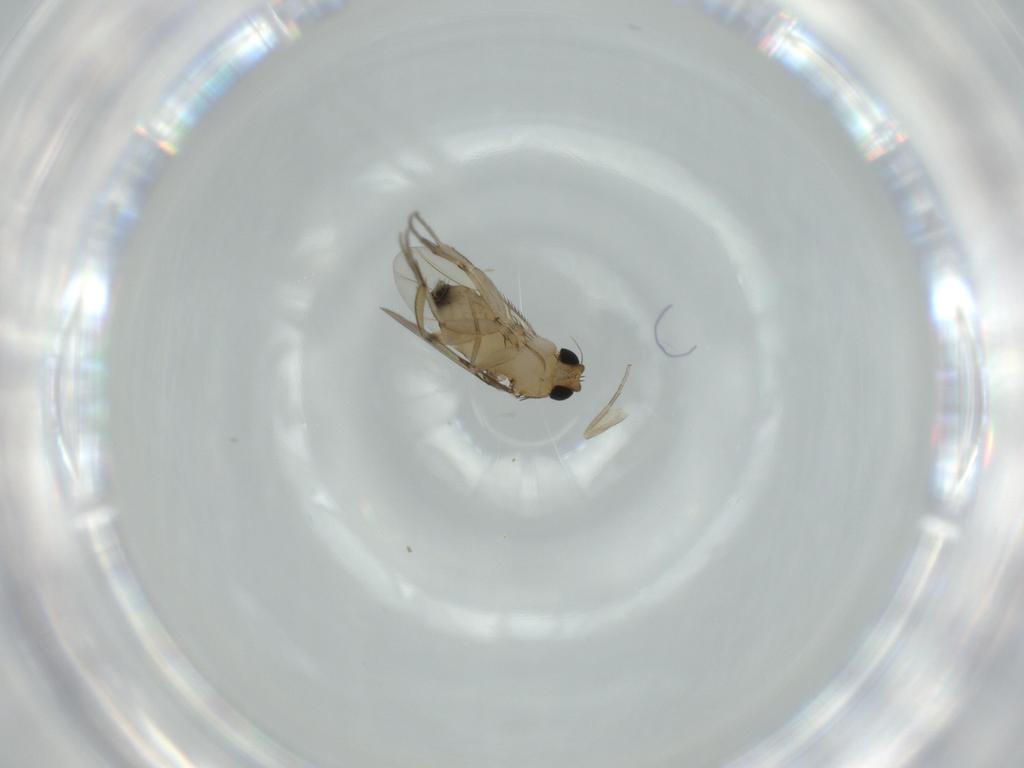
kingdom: Animalia
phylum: Arthropoda
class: Insecta
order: Diptera
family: Phoridae
